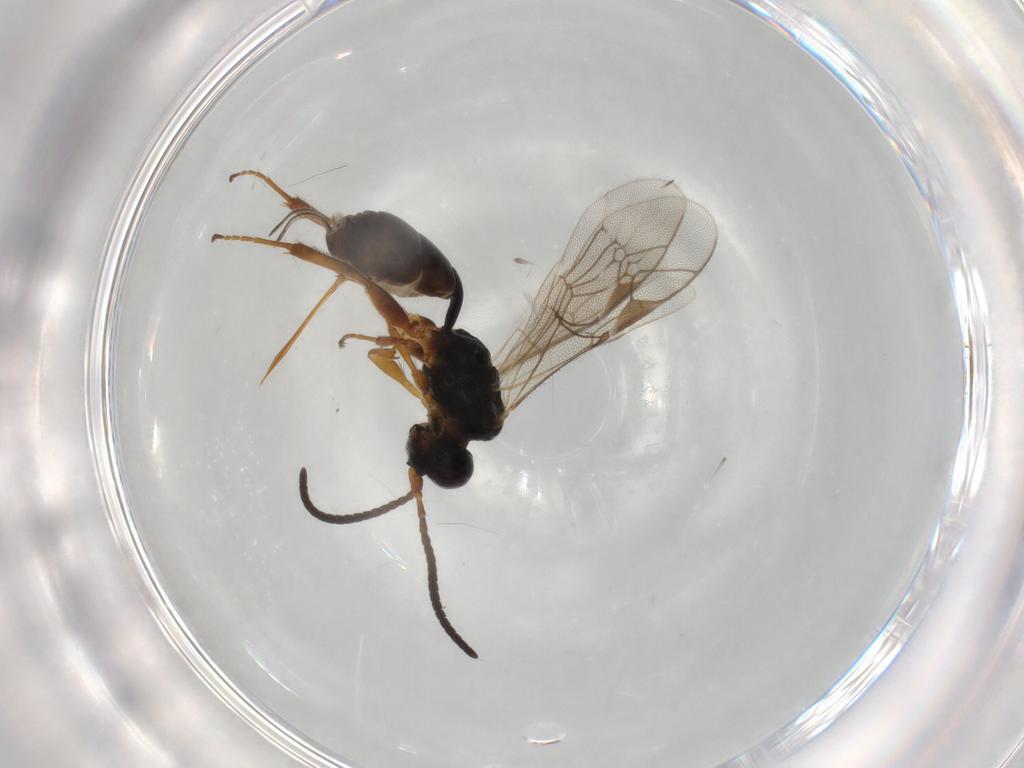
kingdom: Animalia
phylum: Arthropoda
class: Insecta
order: Hymenoptera
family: Ichneumonidae
